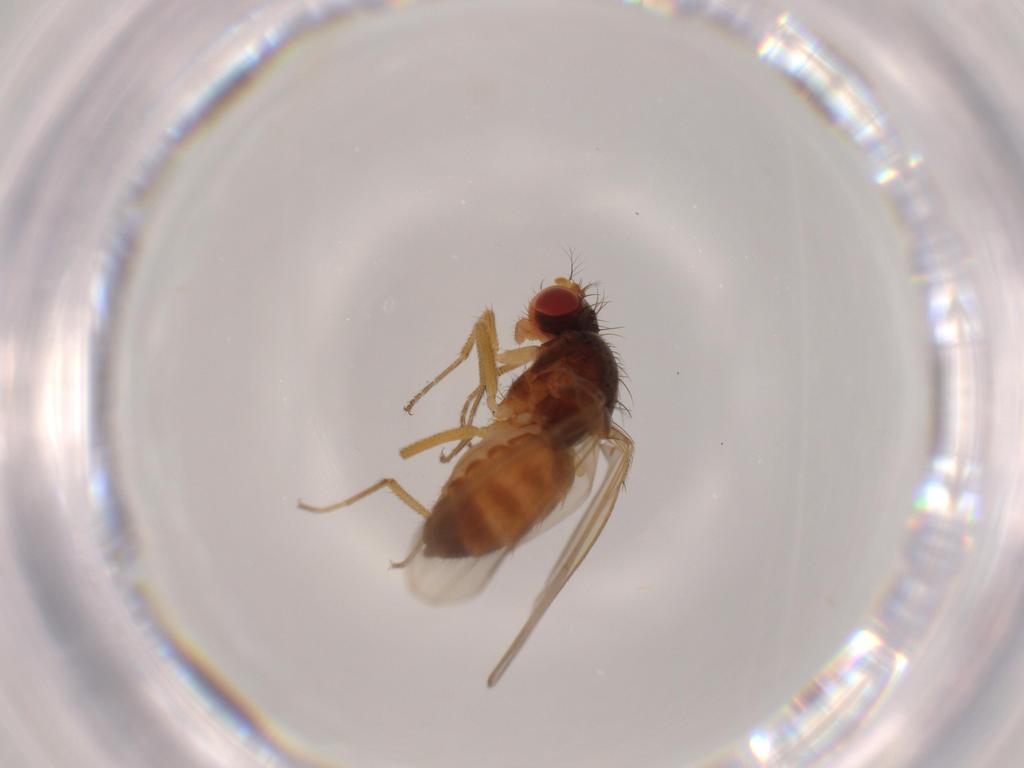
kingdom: Animalia
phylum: Arthropoda
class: Insecta
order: Diptera
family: Drosophilidae
